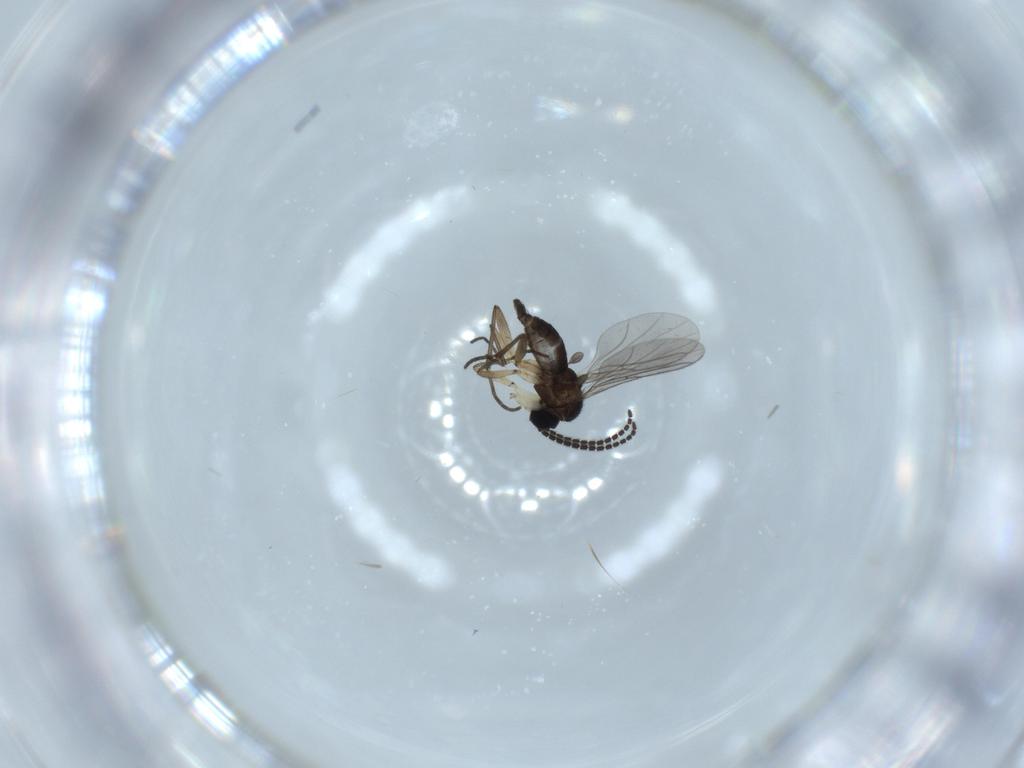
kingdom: Animalia
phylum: Arthropoda
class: Insecta
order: Diptera
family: Sciaridae
